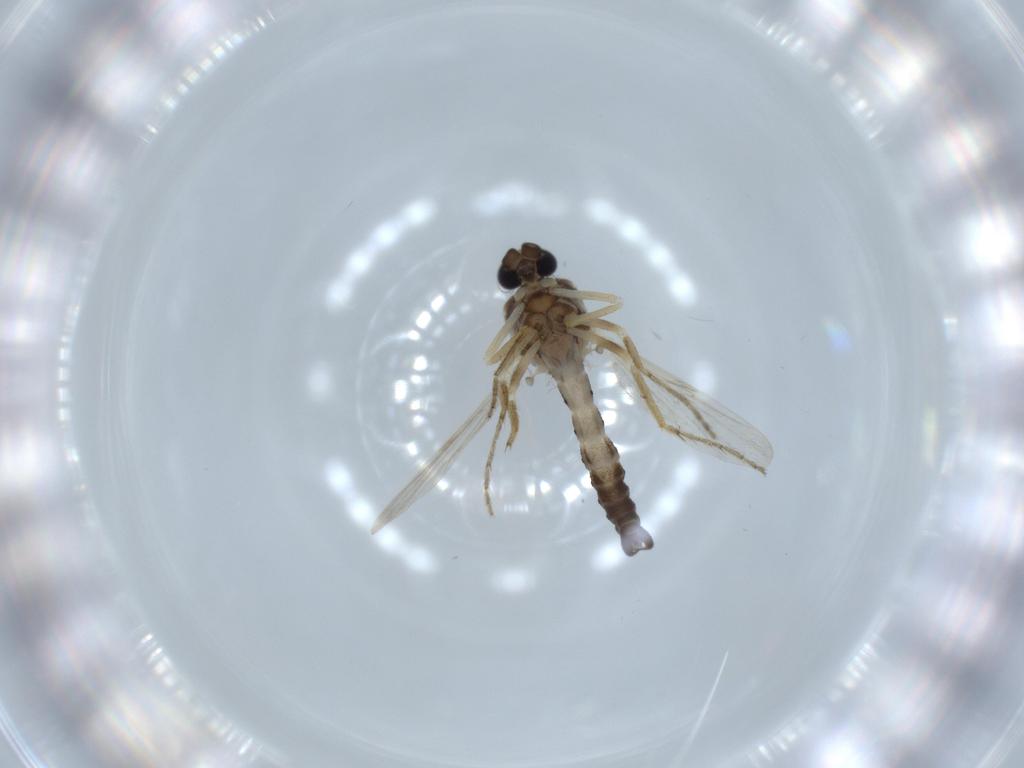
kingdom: Animalia
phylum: Arthropoda
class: Insecta
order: Diptera
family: Ceratopogonidae
